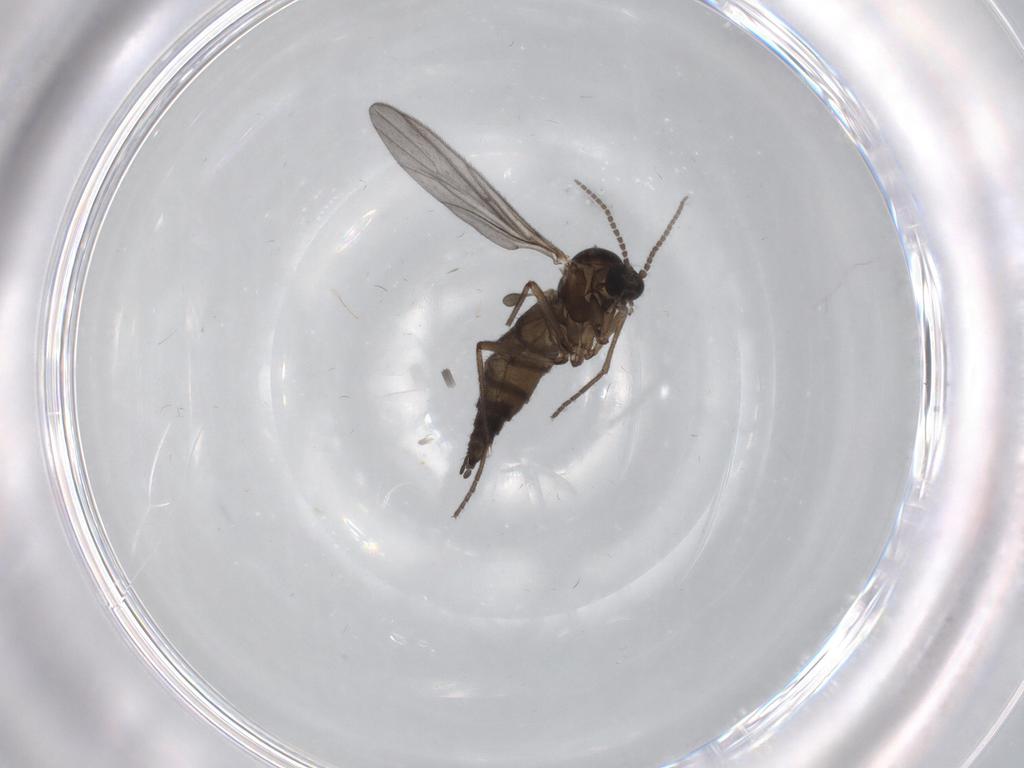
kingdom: Animalia
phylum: Arthropoda
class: Insecta
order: Diptera
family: Sciaridae
